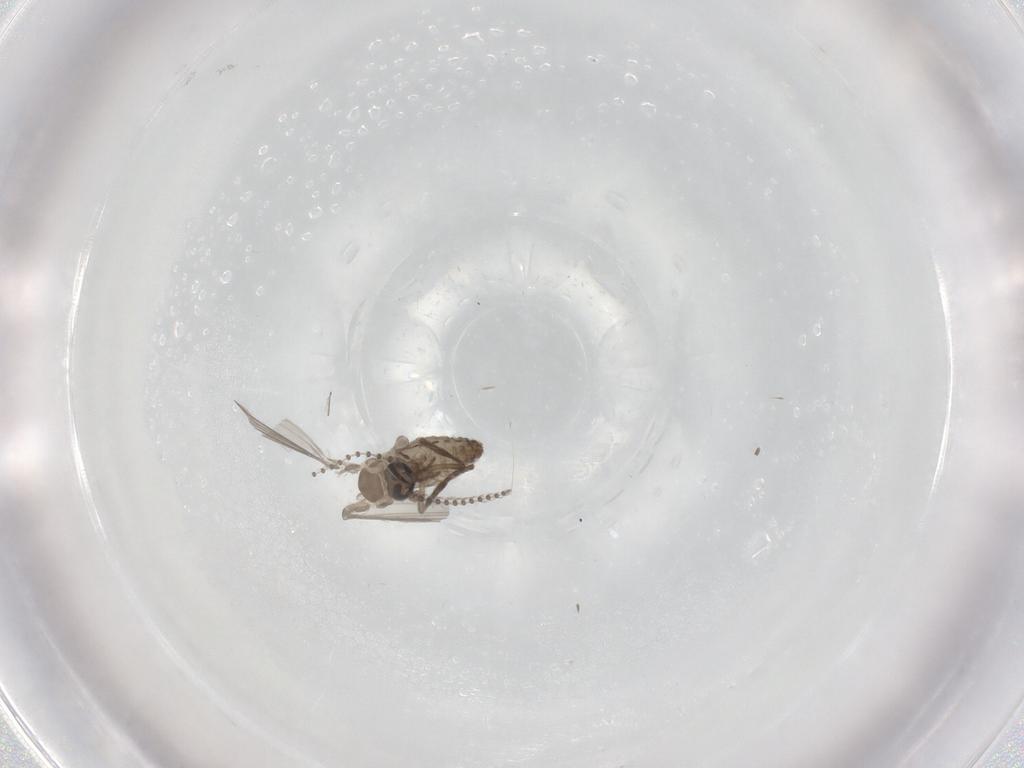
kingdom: Animalia
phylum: Arthropoda
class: Insecta
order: Diptera
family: Psychodidae
